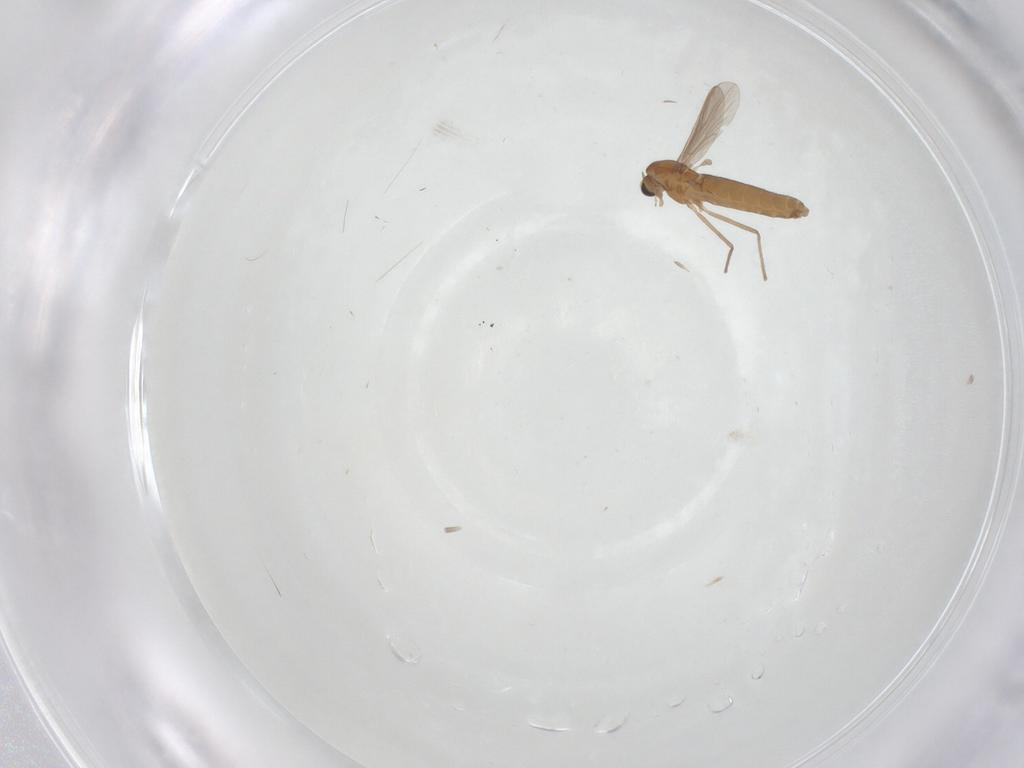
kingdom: Animalia
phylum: Arthropoda
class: Insecta
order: Diptera
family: Chironomidae
